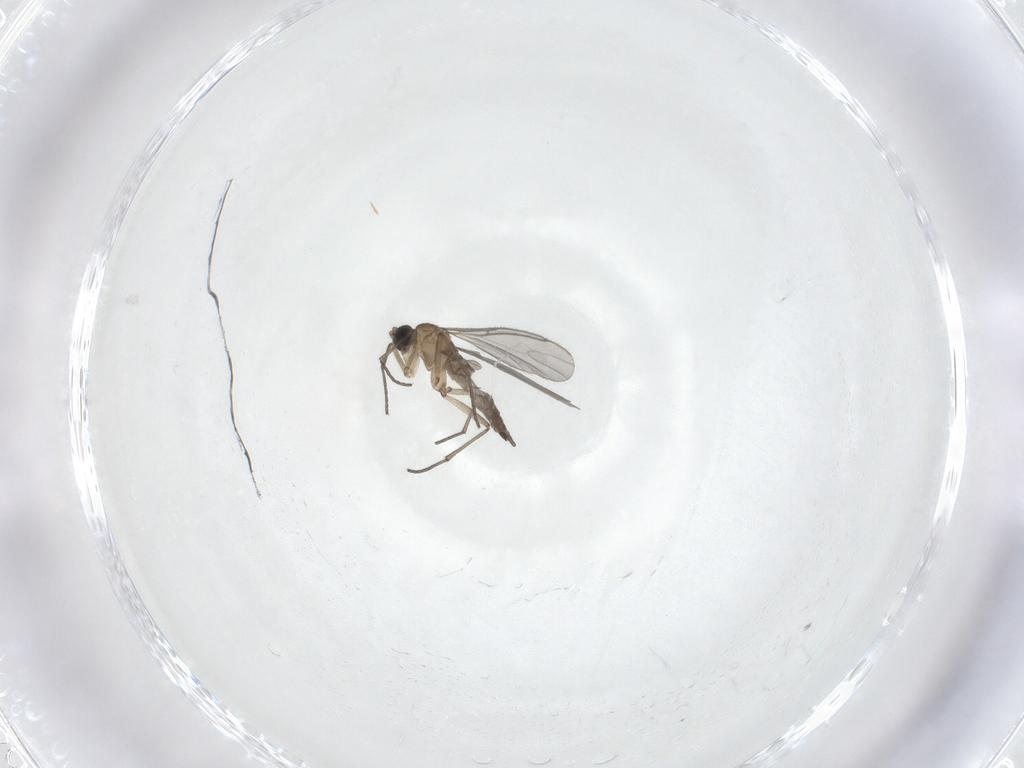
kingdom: Animalia
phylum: Arthropoda
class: Insecta
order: Diptera
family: Sciaridae
